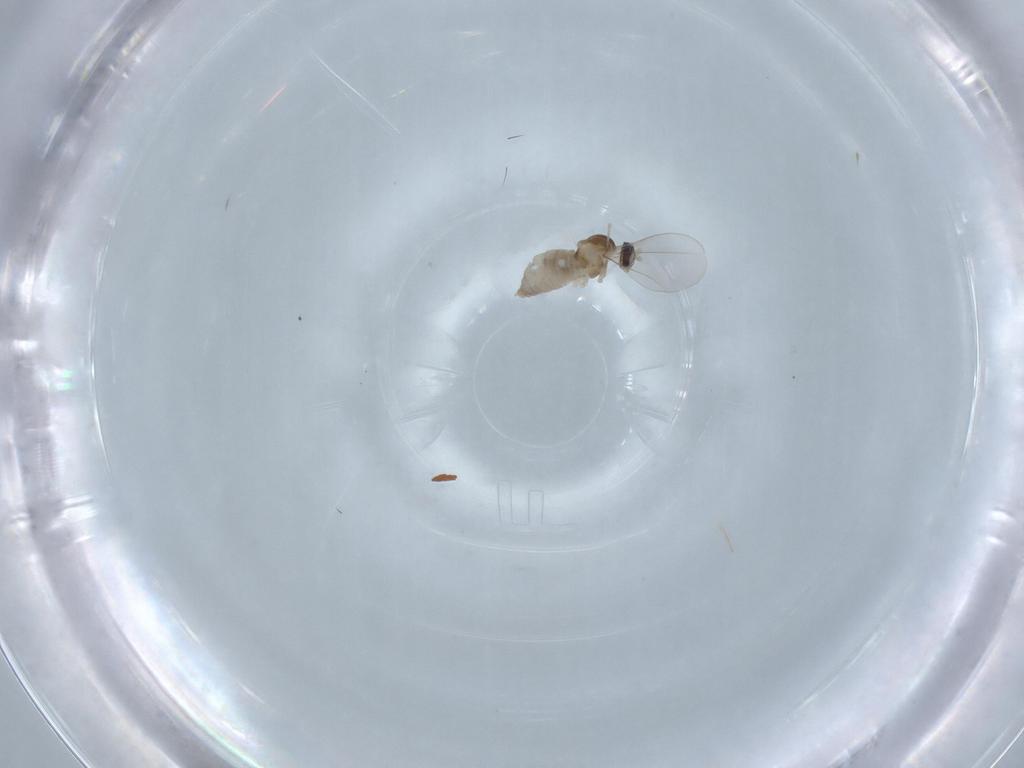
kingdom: Animalia
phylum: Arthropoda
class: Insecta
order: Diptera
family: Cecidomyiidae
